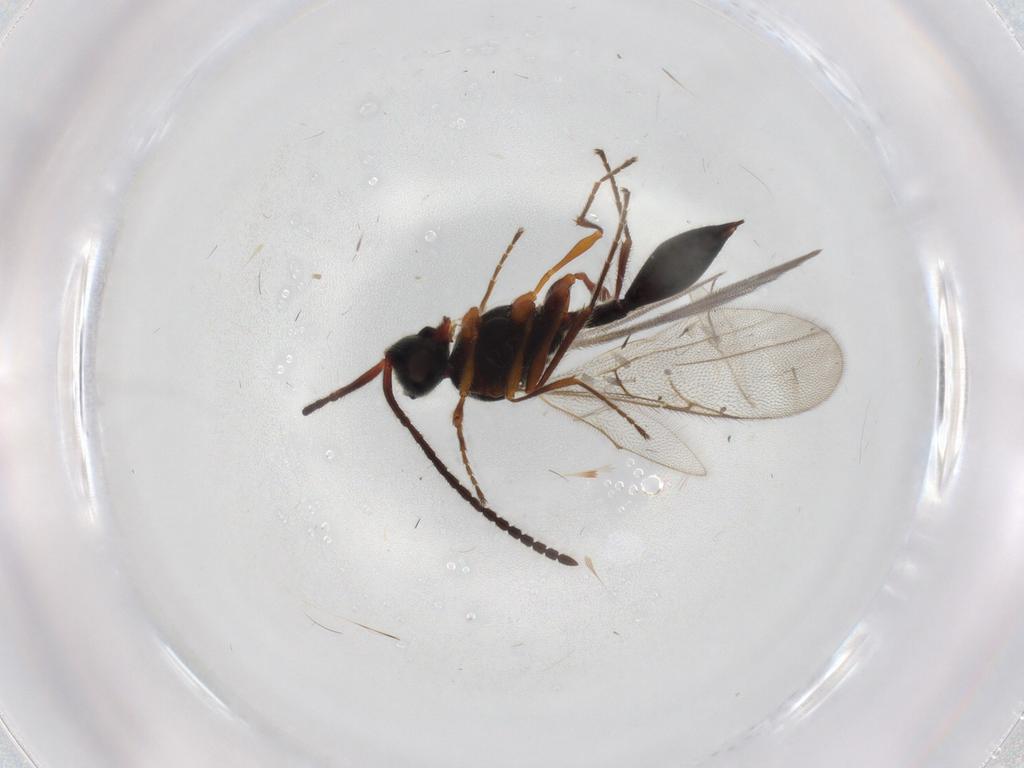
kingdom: Animalia
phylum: Arthropoda
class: Insecta
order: Hymenoptera
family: Diapriidae
